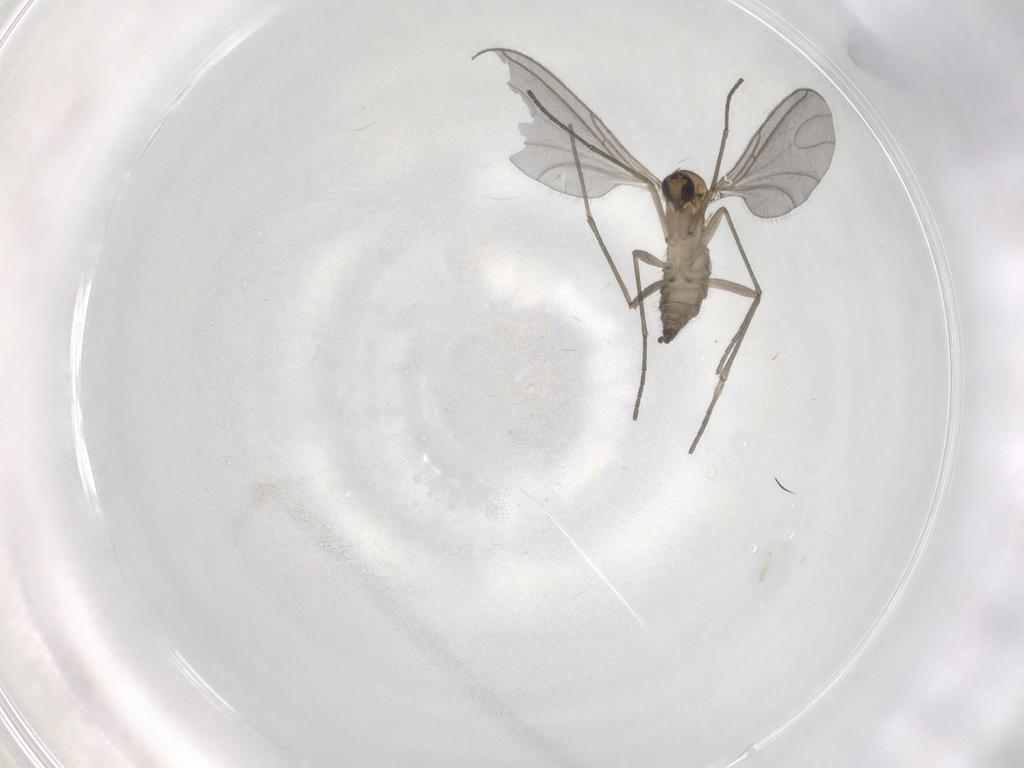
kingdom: Animalia
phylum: Arthropoda
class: Insecta
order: Diptera
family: Sciaridae
